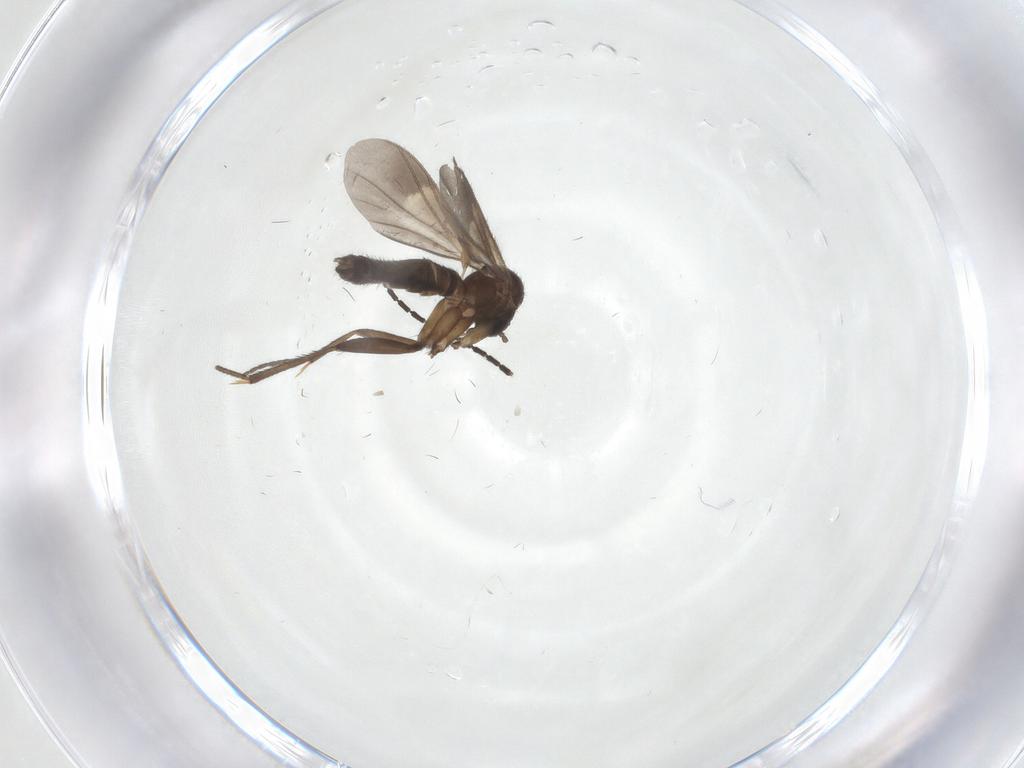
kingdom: Animalia
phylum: Arthropoda
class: Insecta
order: Diptera
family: Mycetophilidae
